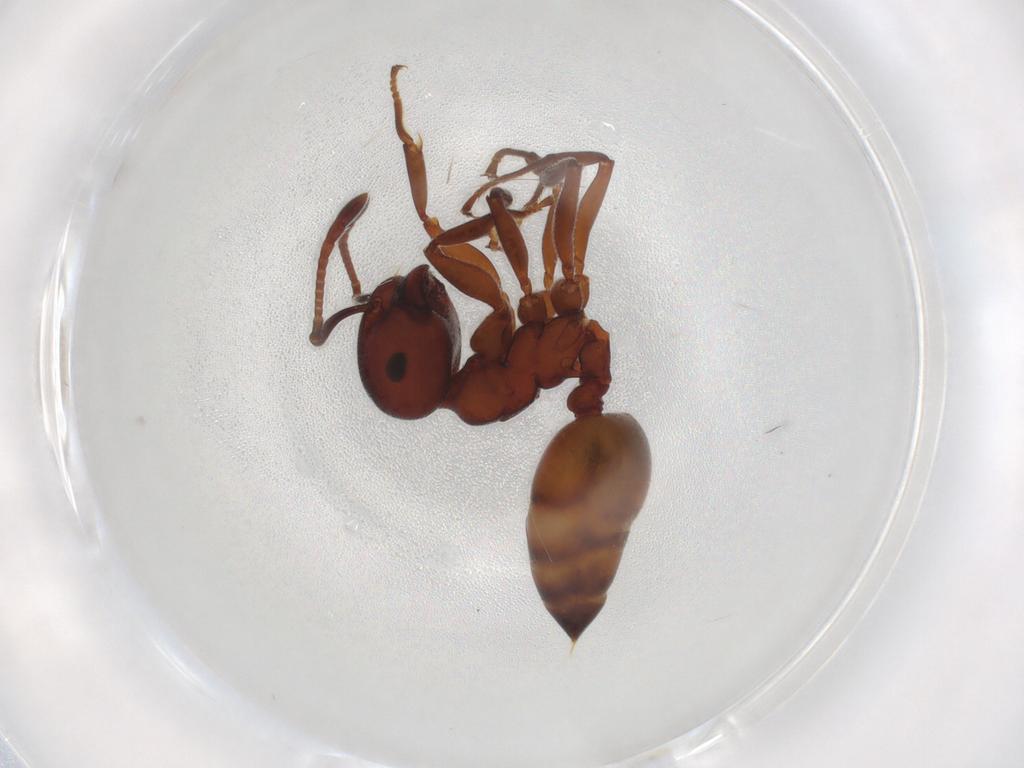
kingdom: Animalia
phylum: Arthropoda
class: Insecta
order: Hymenoptera
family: Formicidae
